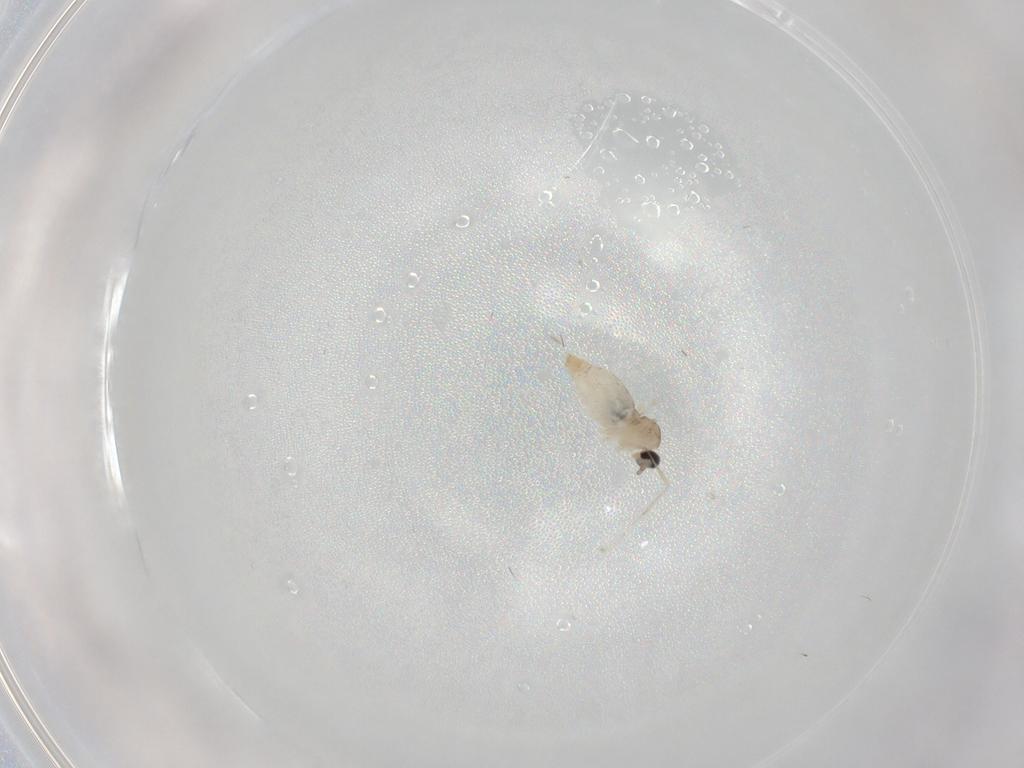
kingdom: Animalia
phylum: Arthropoda
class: Insecta
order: Diptera
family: Cecidomyiidae
